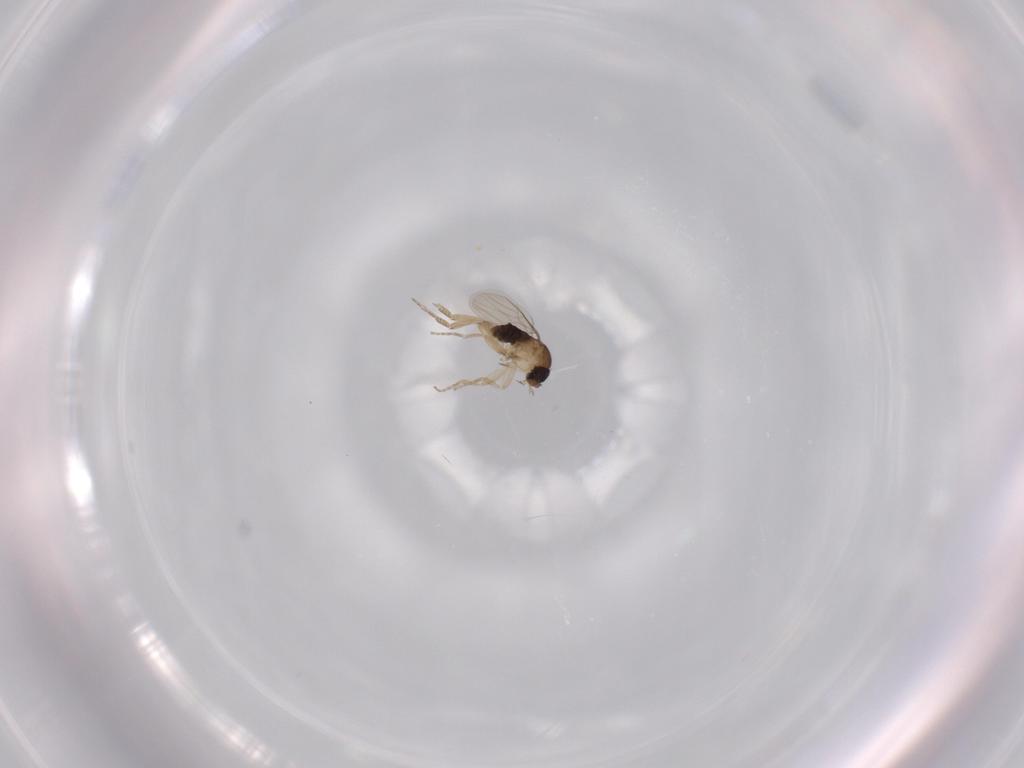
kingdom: Animalia
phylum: Arthropoda
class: Insecta
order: Diptera
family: Phoridae
